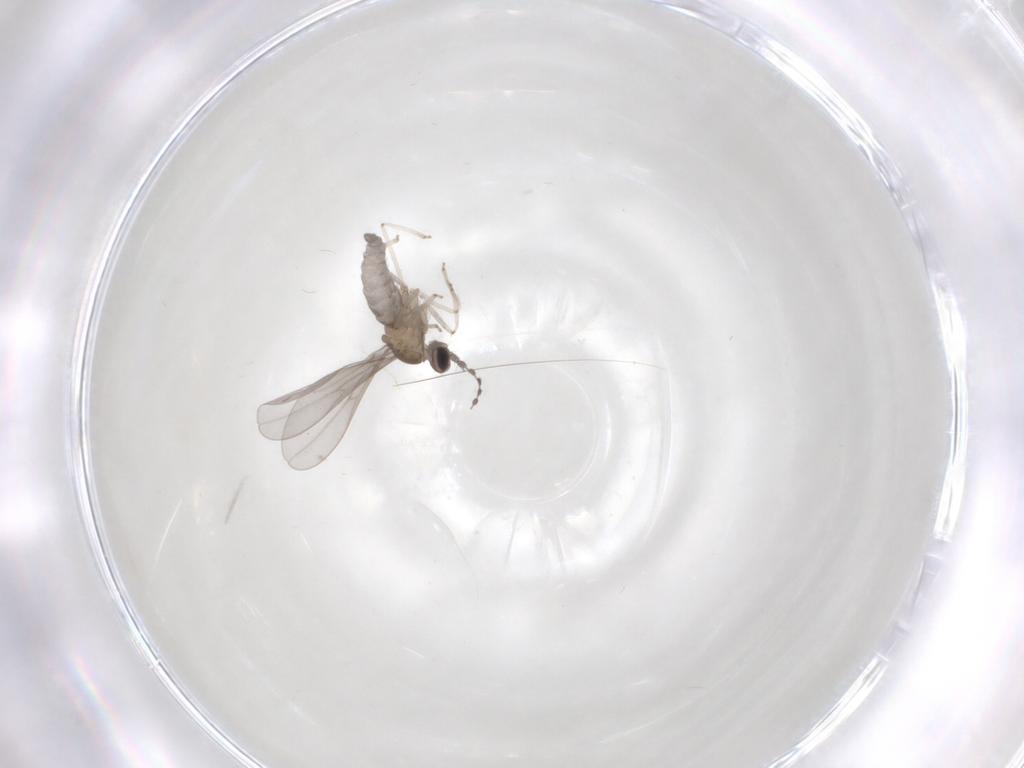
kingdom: Animalia
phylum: Arthropoda
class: Insecta
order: Diptera
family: Cecidomyiidae
